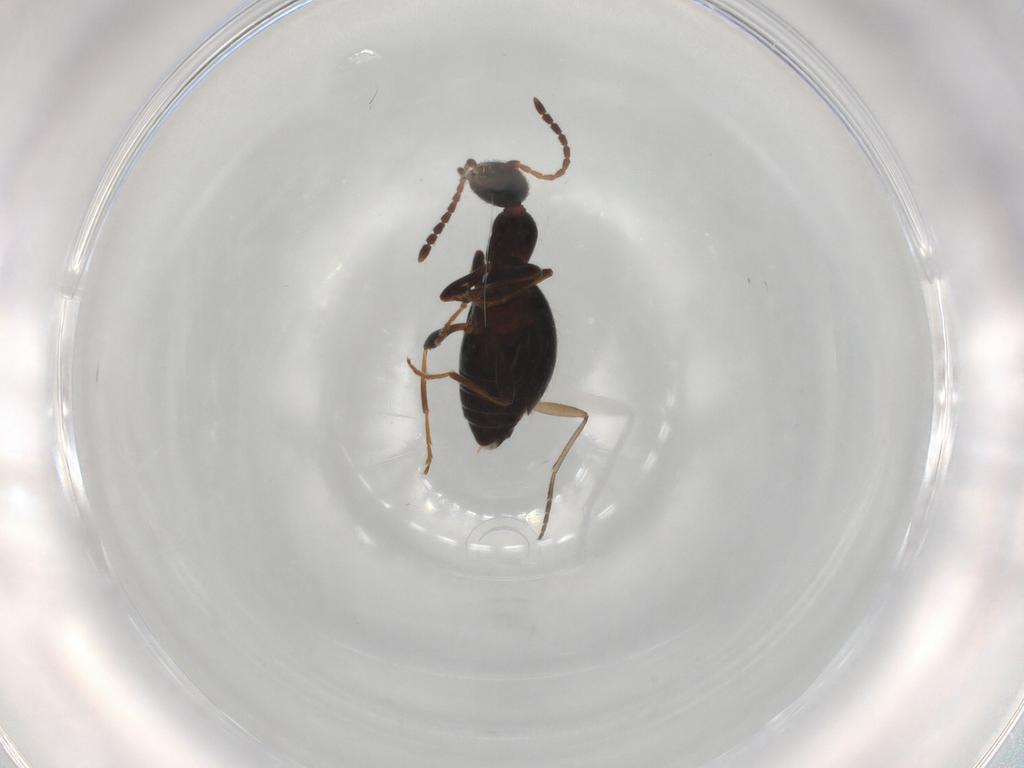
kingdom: Animalia
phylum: Arthropoda
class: Insecta
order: Coleoptera
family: Anthicidae
